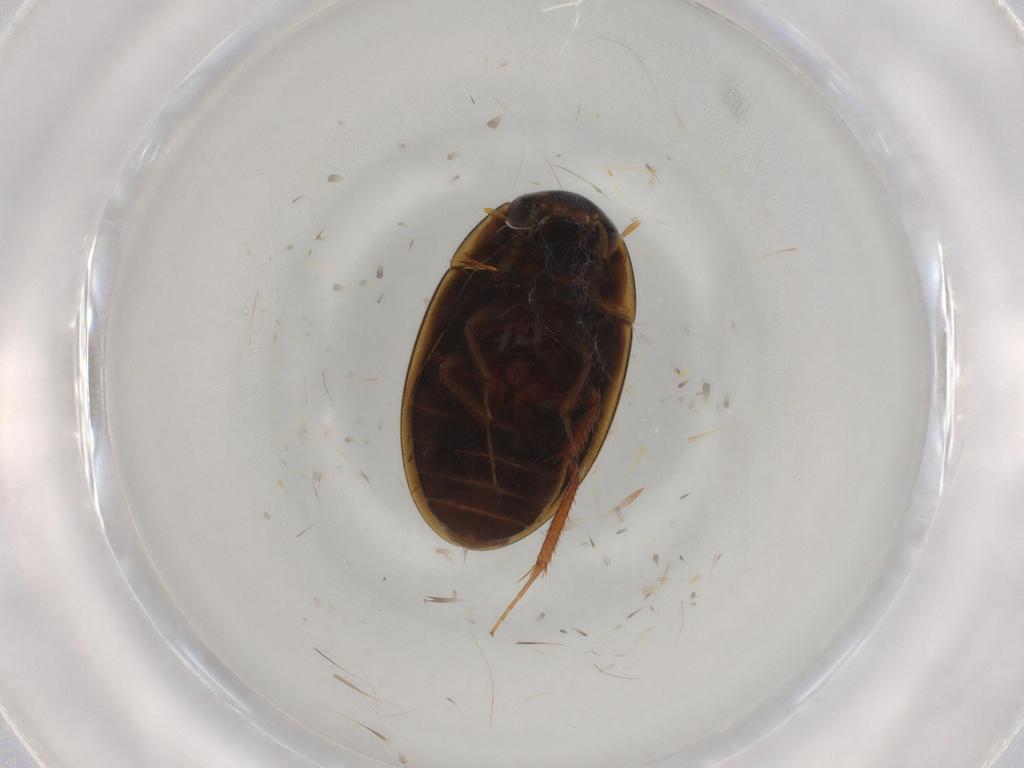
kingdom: Animalia
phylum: Arthropoda
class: Insecta
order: Coleoptera
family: Hydrophilidae
